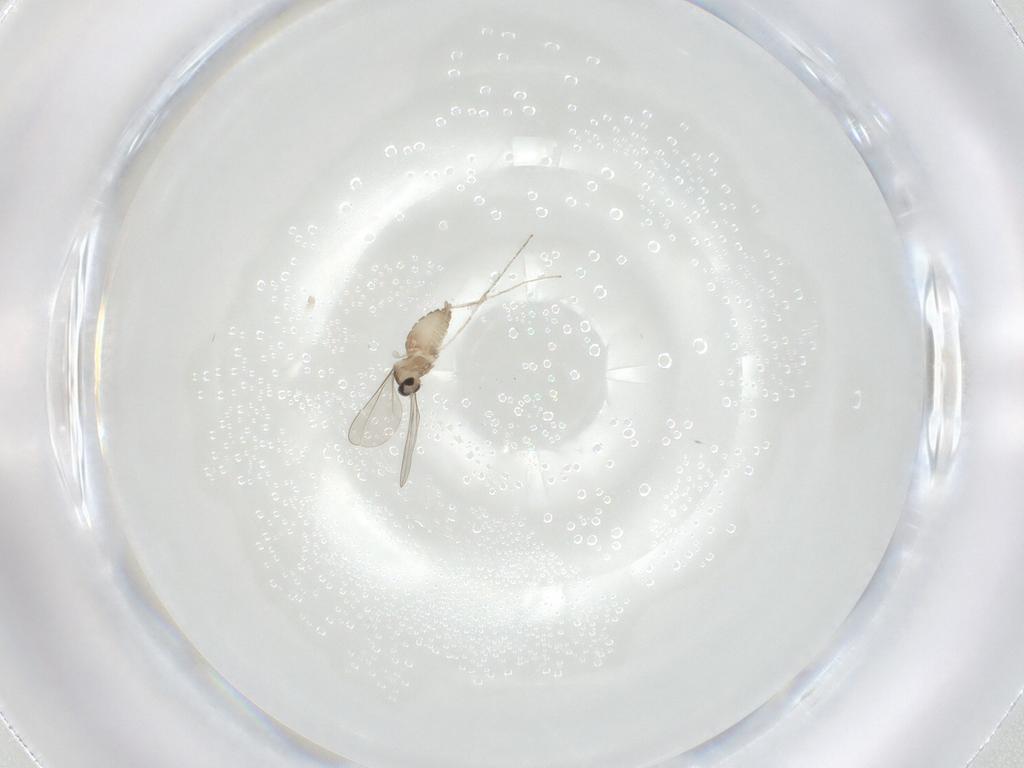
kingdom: Animalia
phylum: Arthropoda
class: Insecta
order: Diptera
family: Cecidomyiidae
